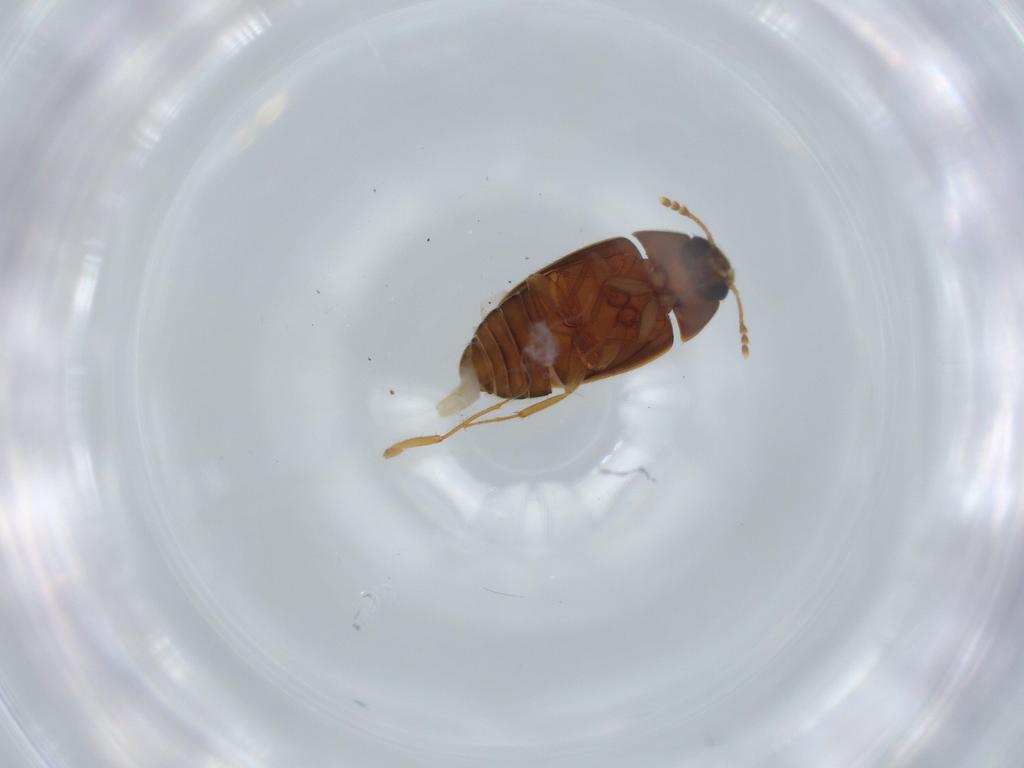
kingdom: Animalia
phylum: Arthropoda
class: Insecta
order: Coleoptera
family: Mycetophagidae
